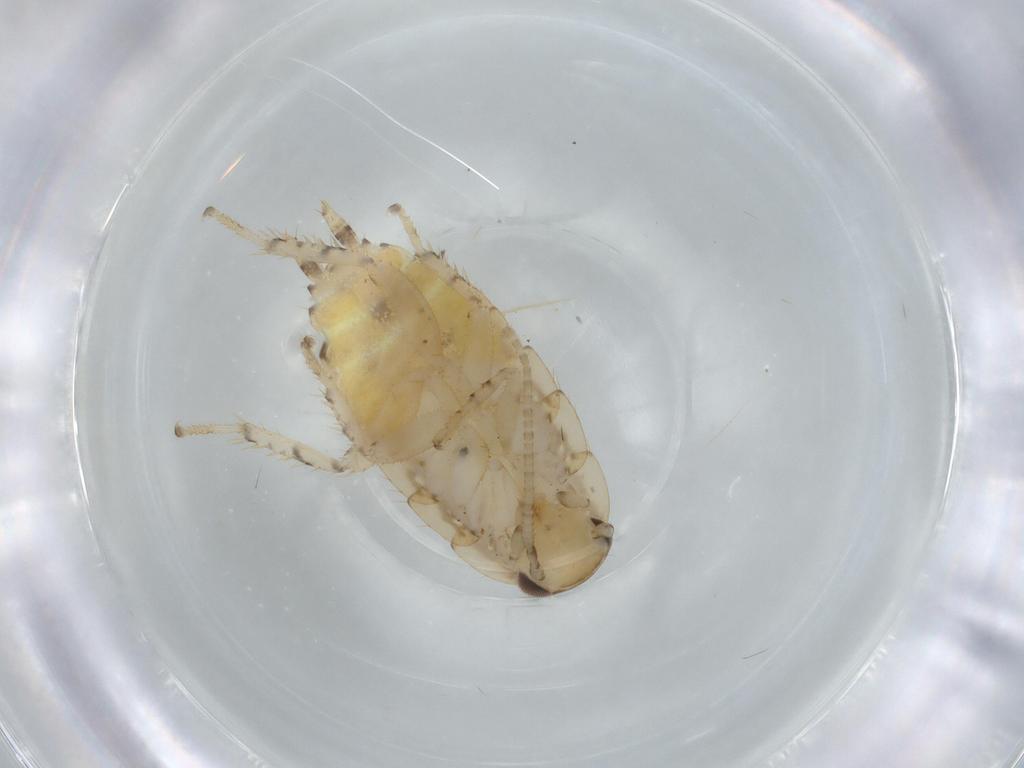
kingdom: Animalia
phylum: Arthropoda
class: Insecta
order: Blattodea
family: Ectobiidae
